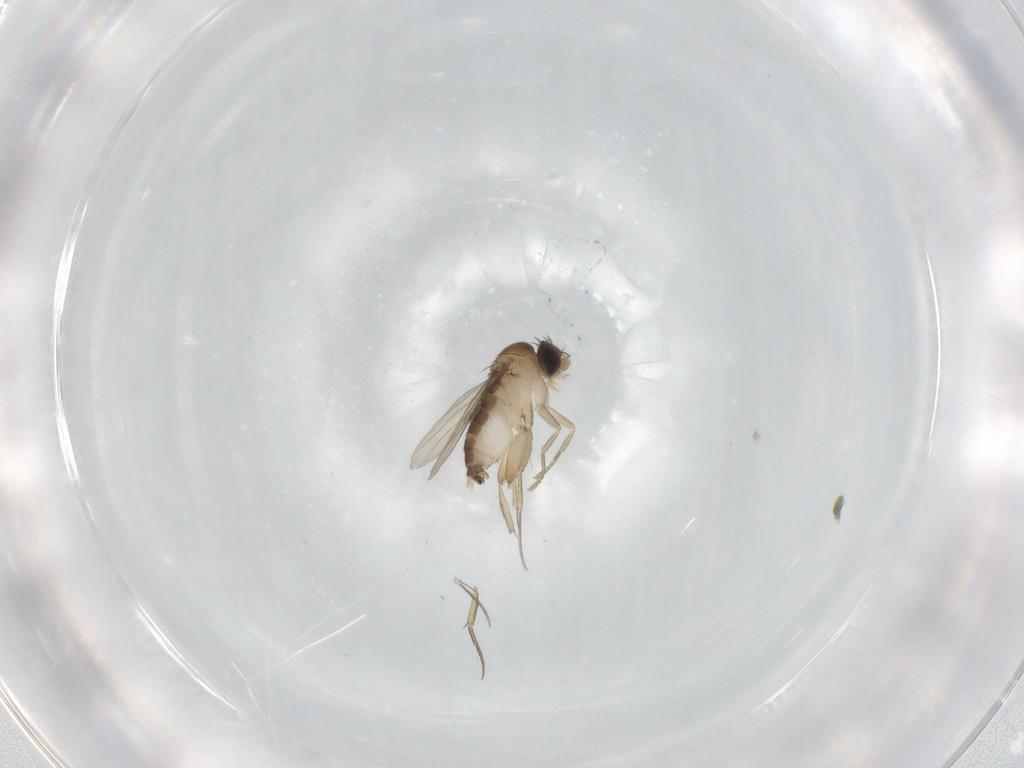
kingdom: Animalia
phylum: Arthropoda
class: Insecta
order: Diptera
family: Phoridae
